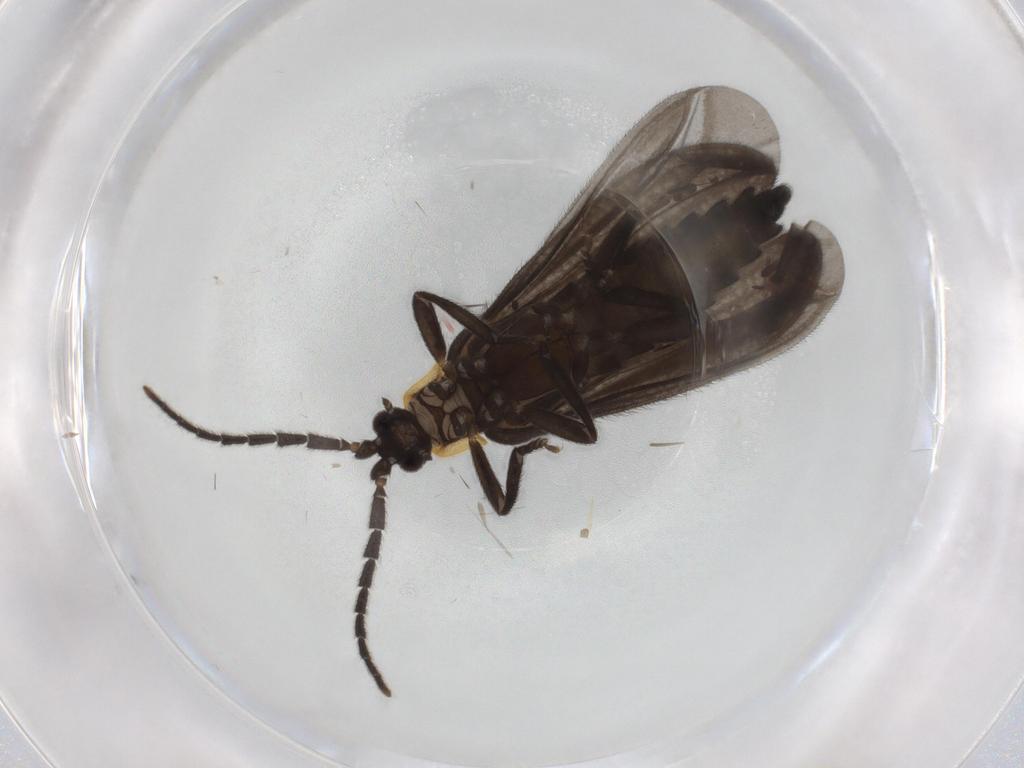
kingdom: Animalia
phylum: Arthropoda
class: Insecta
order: Coleoptera
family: Lycidae
